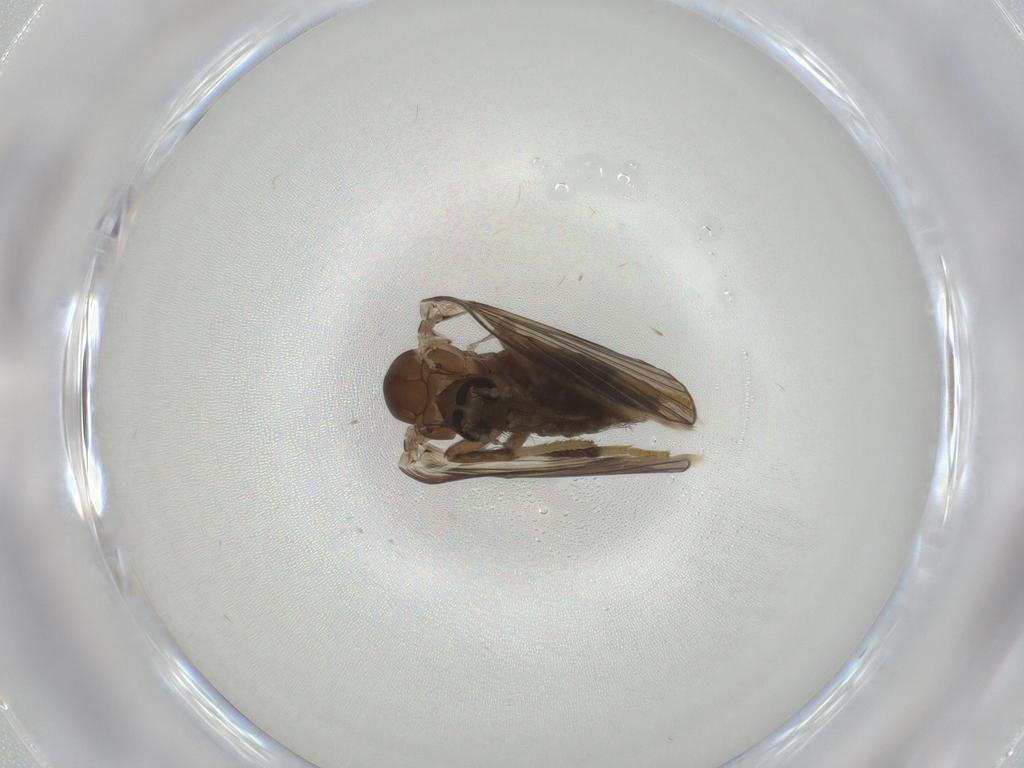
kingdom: Animalia
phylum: Arthropoda
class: Insecta
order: Diptera
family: Psychodidae
